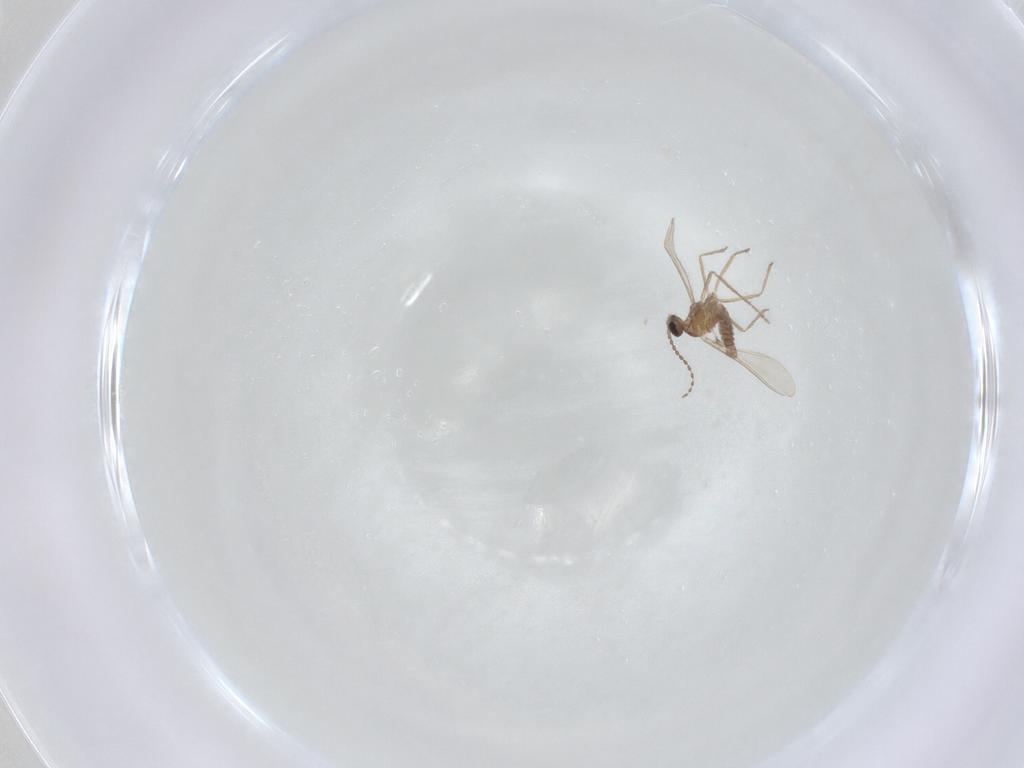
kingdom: Animalia
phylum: Arthropoda
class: Insecta
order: Diptera
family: Cecidomyiidae
